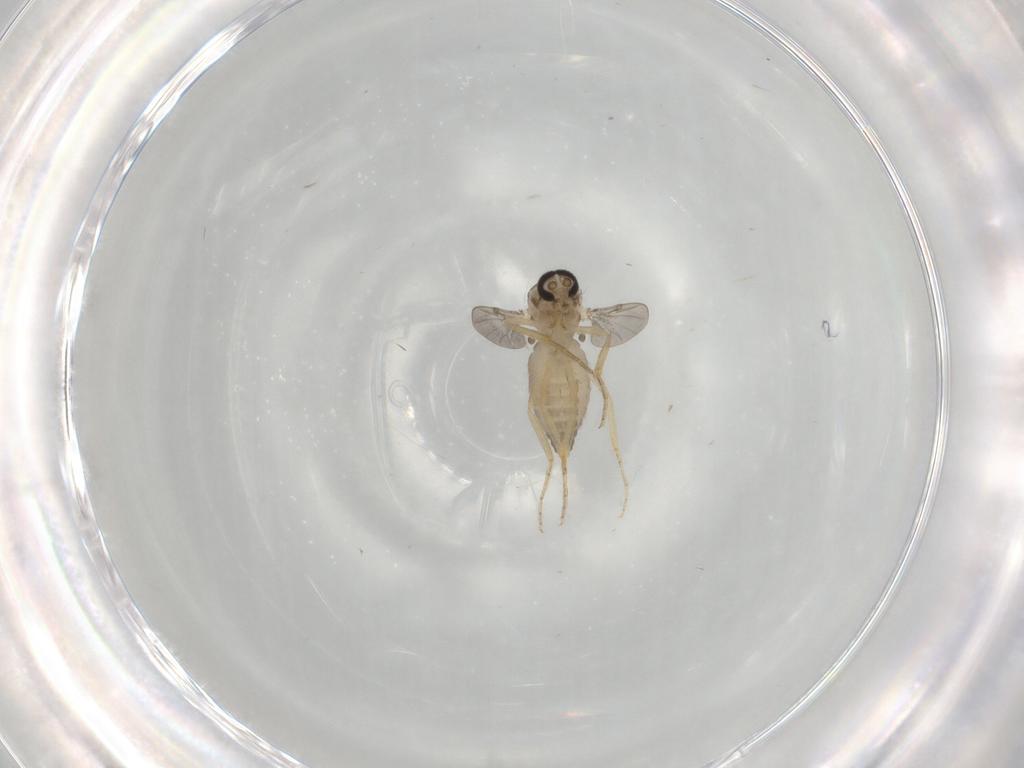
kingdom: Animalia
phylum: Arthropoda
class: Insecta
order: Diptera
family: Ceratopogonidae
